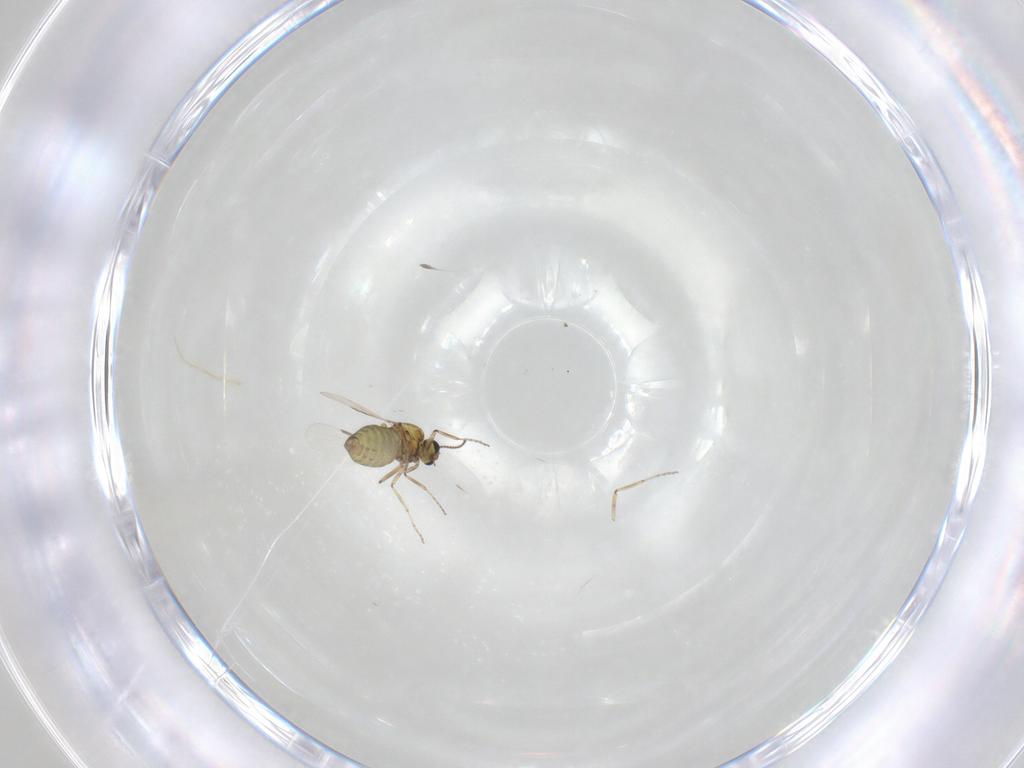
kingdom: Animalia
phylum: Arthropoda
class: Insecta
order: Diptera
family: Ceratopogonidae
